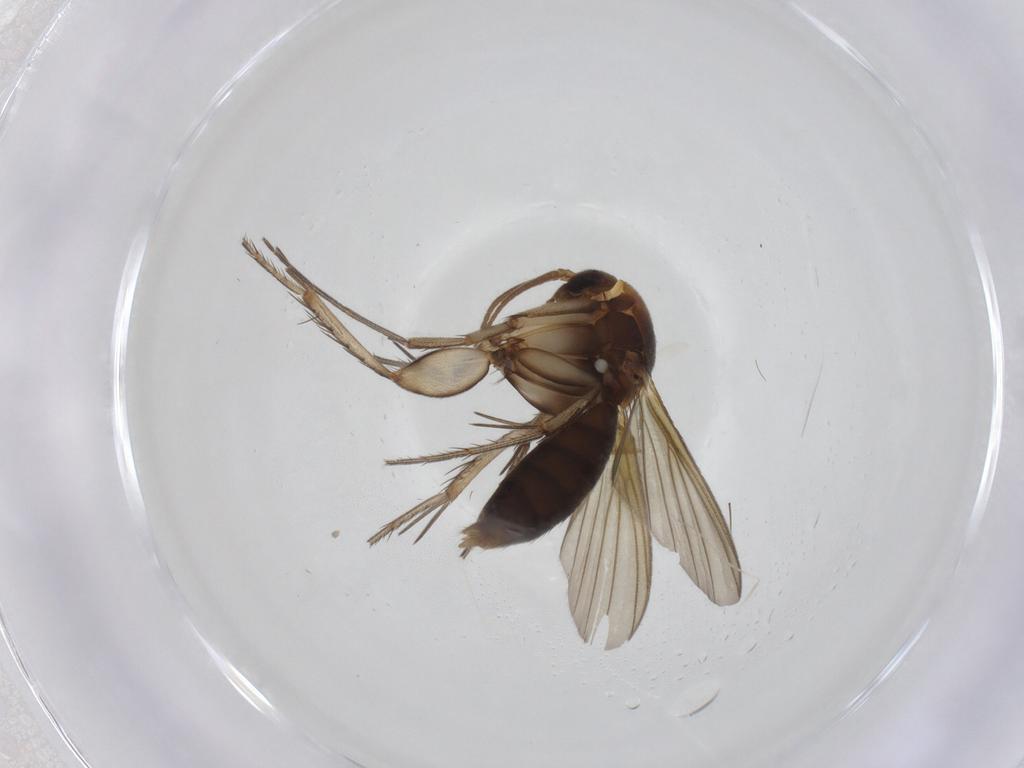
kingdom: Animalia
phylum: Arthropoda
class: Insecta
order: Diptera
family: Mycetophilidae
